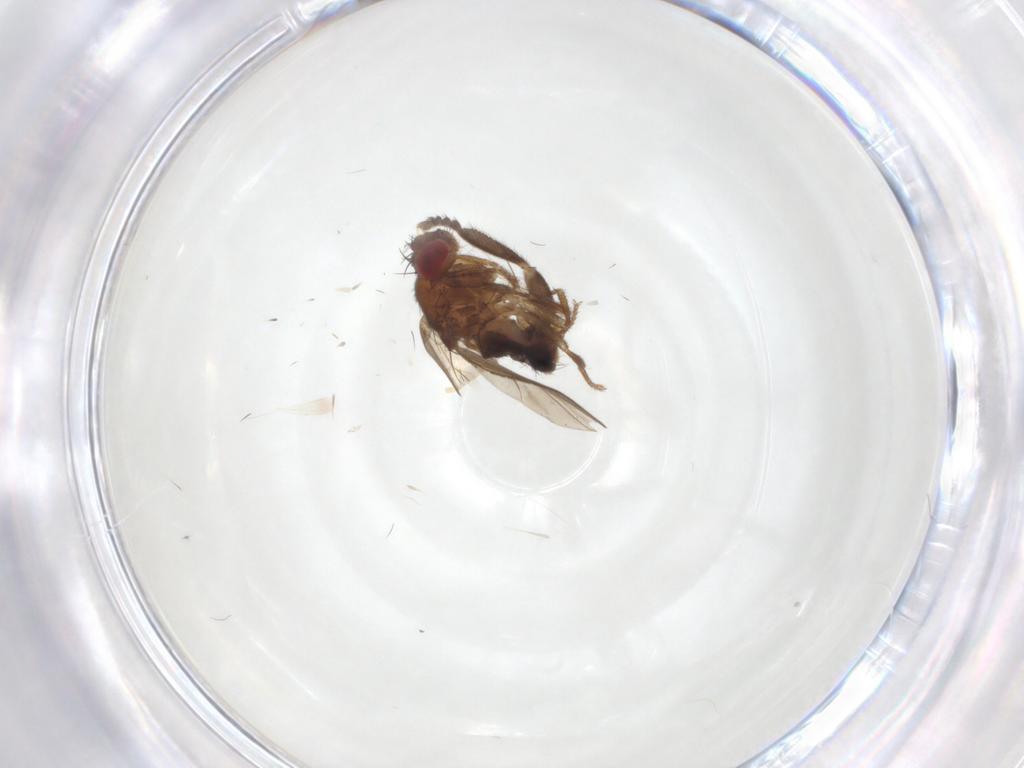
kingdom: Animalia
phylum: Arthropoda
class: Insecta
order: Diptera
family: Drosophilidae
